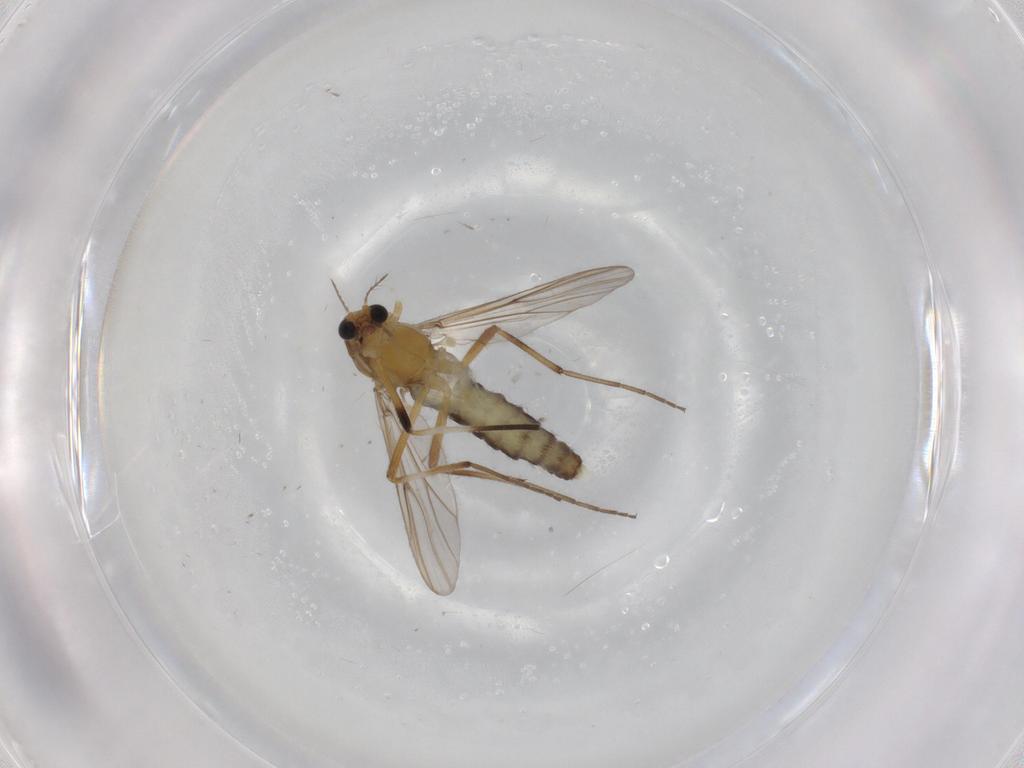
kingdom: Animalia
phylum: Arthropoda
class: Insecta
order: Diptera
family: Chironomidae
